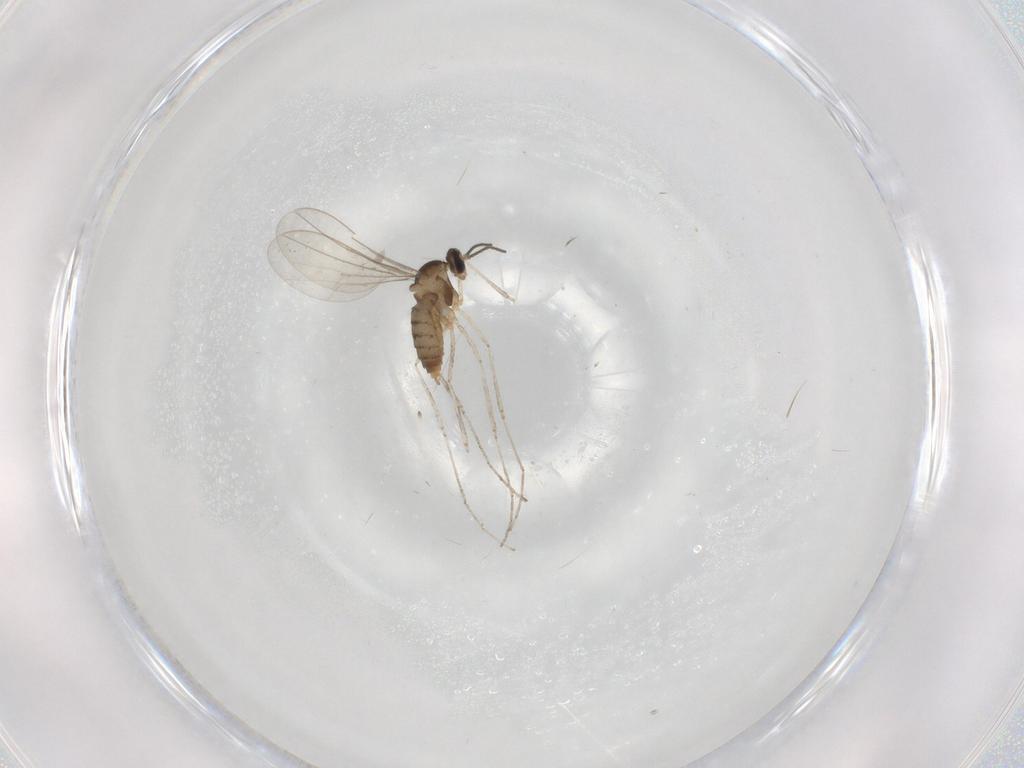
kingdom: Animalia
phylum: Arthropoda
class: Insecta
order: Diptera
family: Cecidomyiidae
